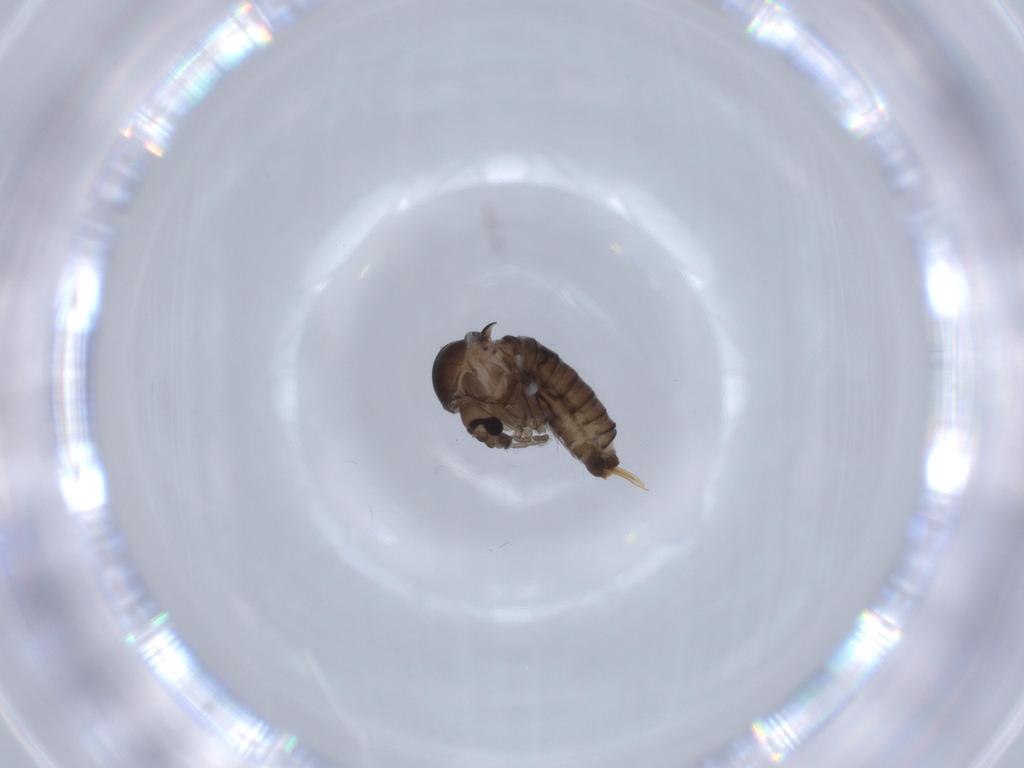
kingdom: Animalia
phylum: Arthropoda
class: Insecta
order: Diptera
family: Psychodidae
